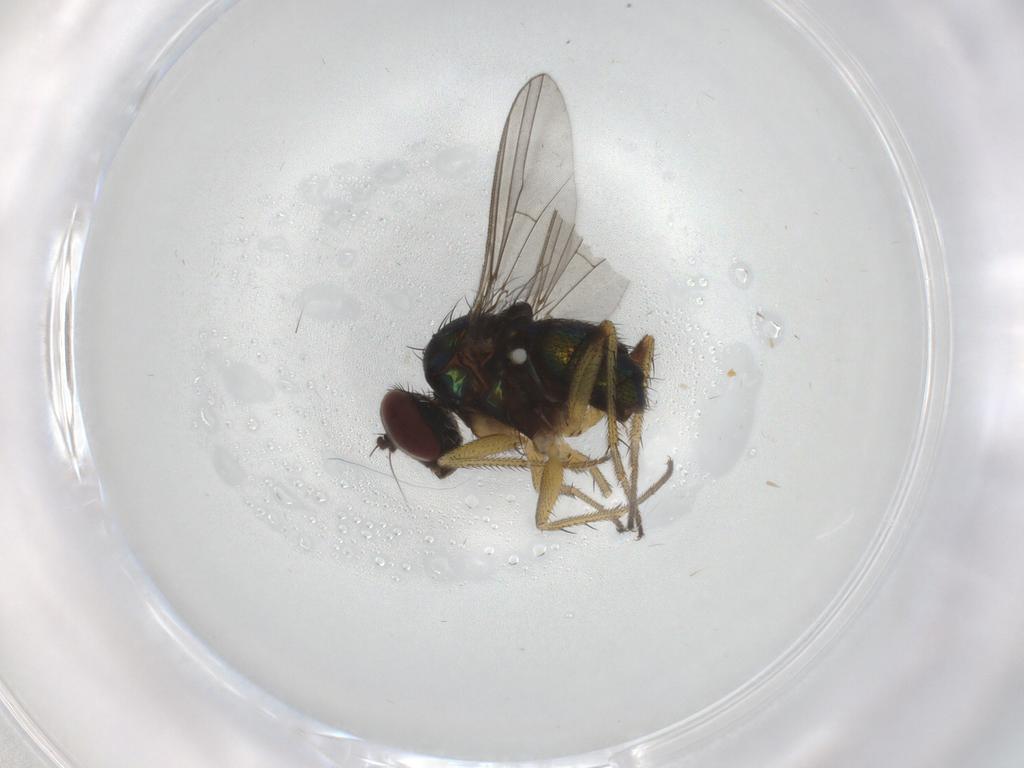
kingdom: Animalia
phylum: Arthropoda
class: Insecta
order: Diptera
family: Dolichopodidae
